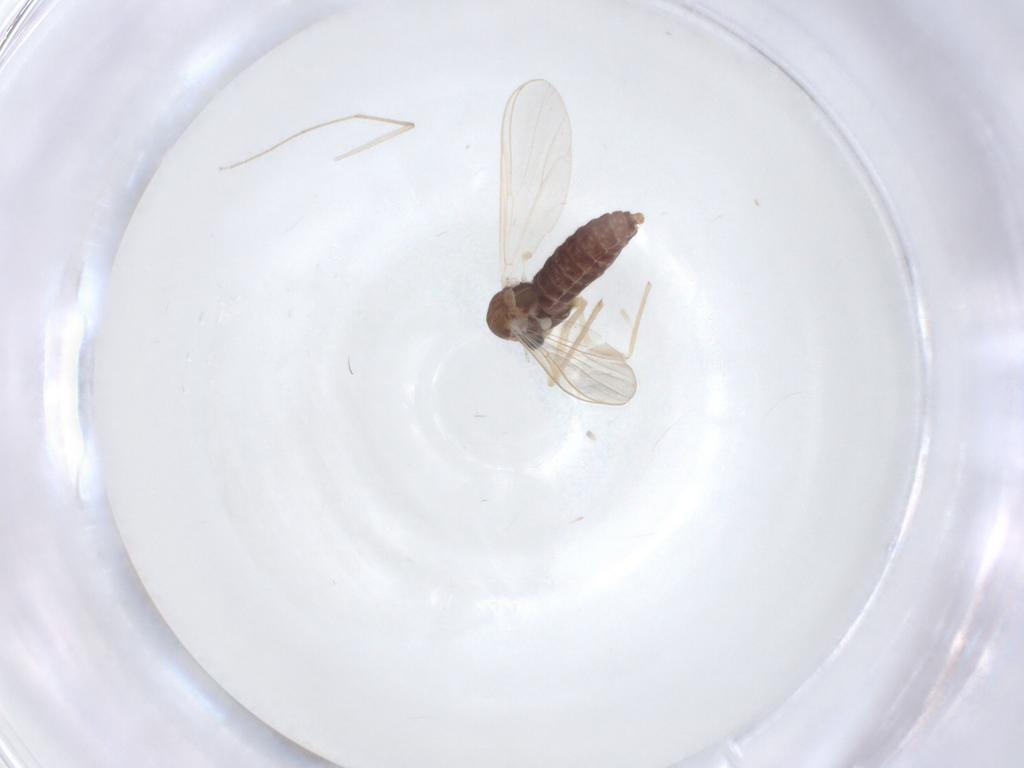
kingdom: Animalia
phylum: Arthropoda
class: Insecta
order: Diptera
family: Chironomidae
